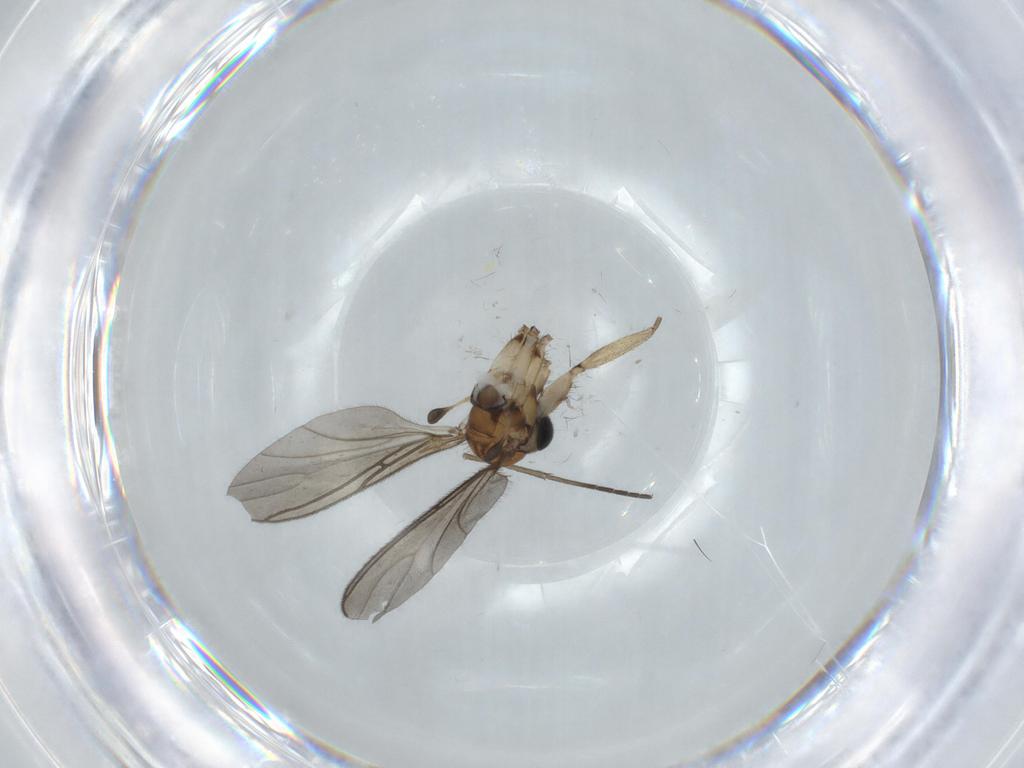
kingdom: Animalia
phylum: Arthropoda
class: Insecta
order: Diptera
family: Sciaridae
